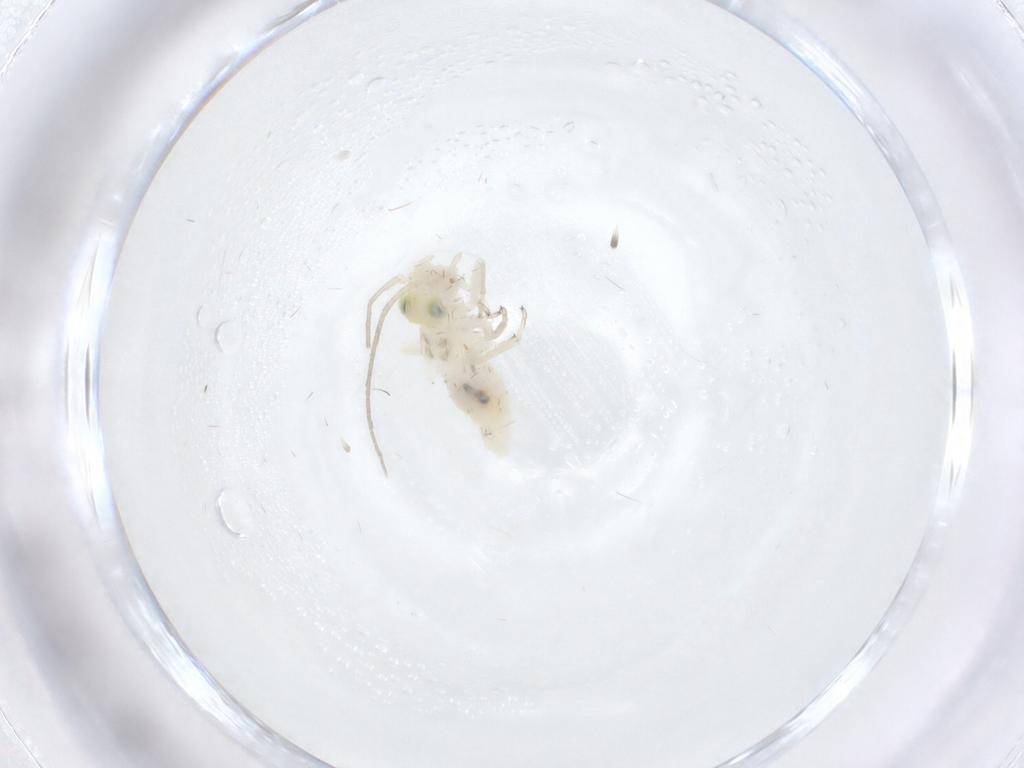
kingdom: Animalia
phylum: Arthropoda
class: Insecta
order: Psocodea
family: Caeciliusidae
